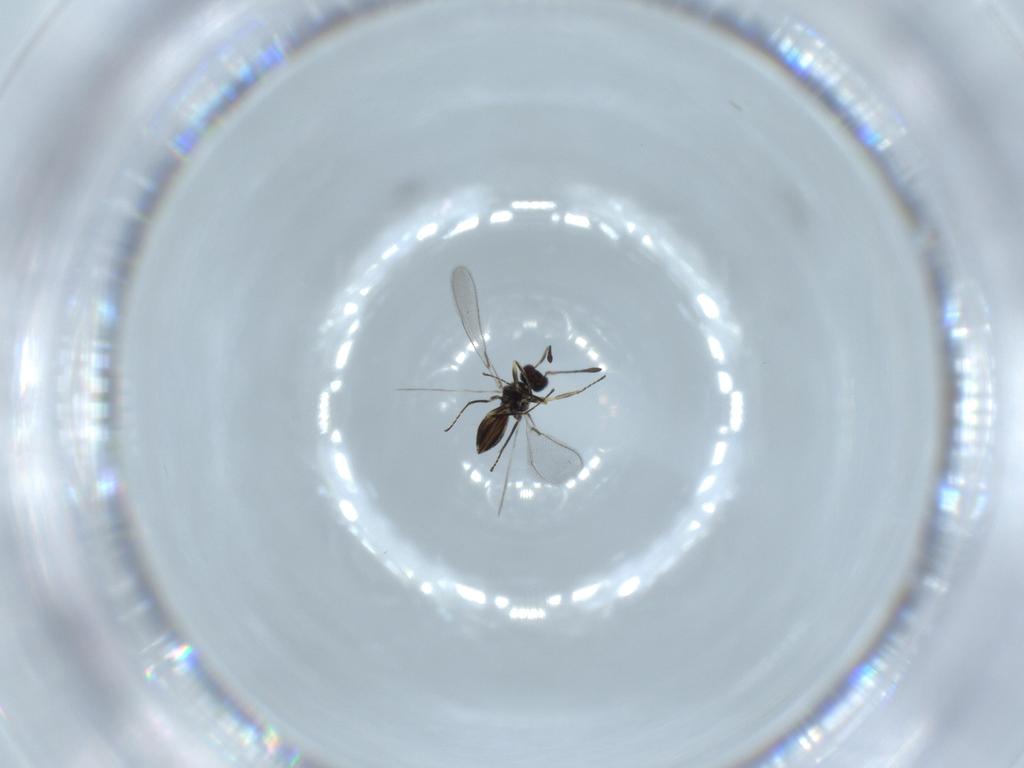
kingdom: Animalia
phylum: Arthropoda
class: Insecta
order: Hymenoptera
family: Mymaridae
